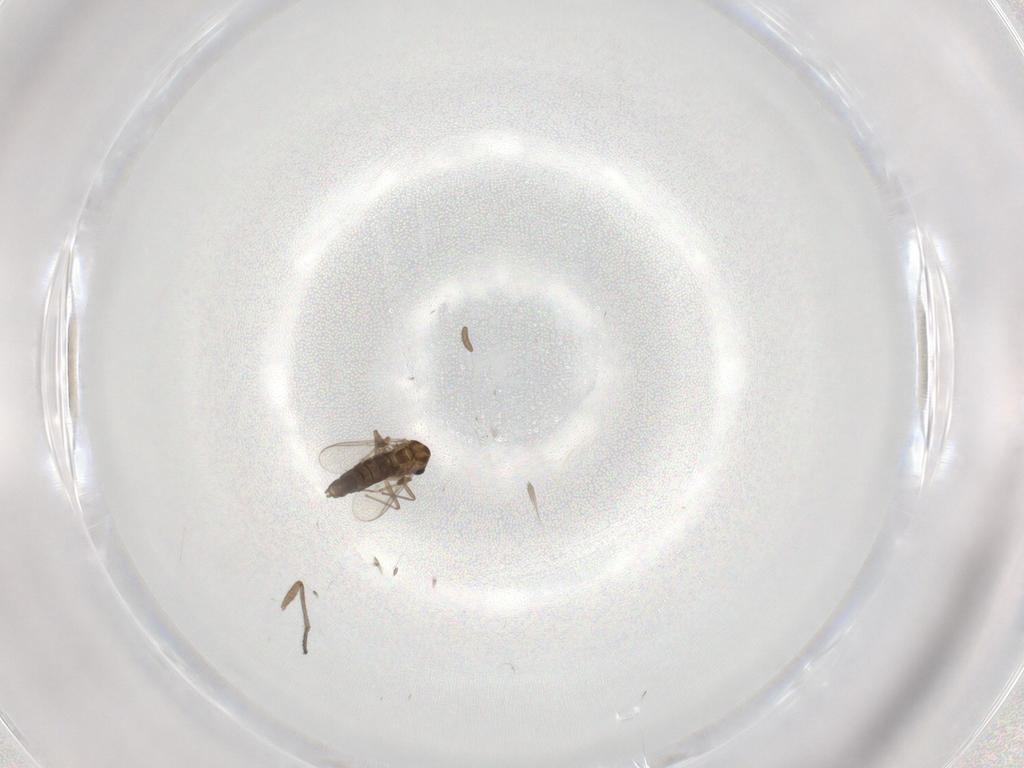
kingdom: Animalia
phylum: Arthropoda
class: Insecta
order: Diptera
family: Chironomidae
